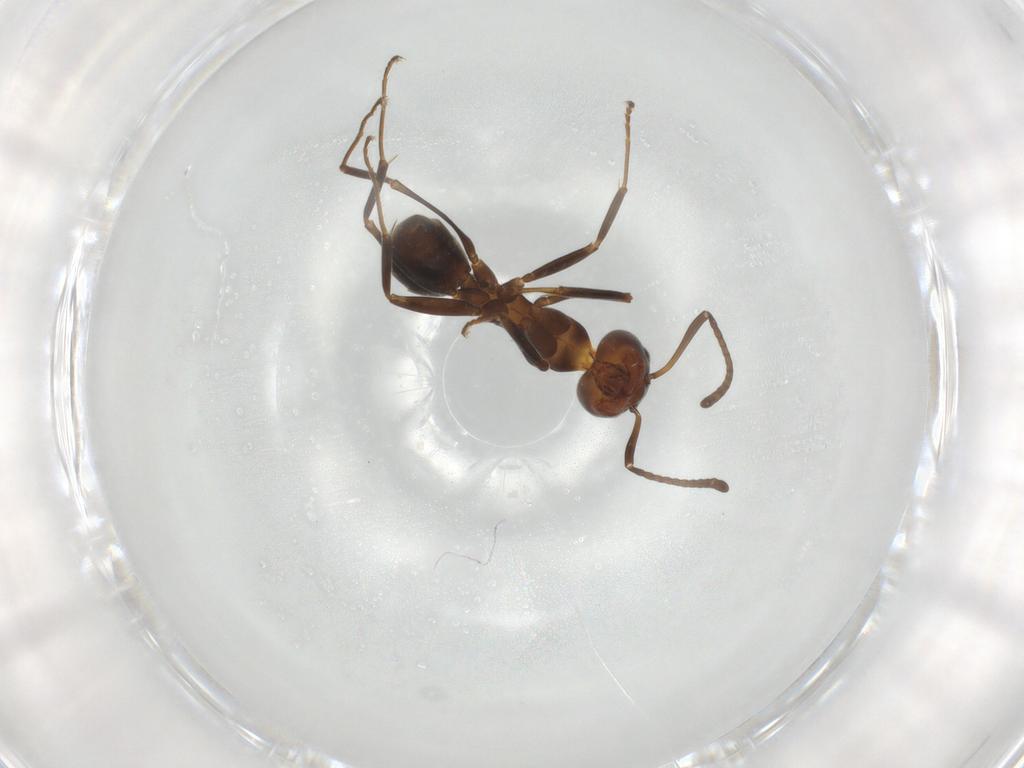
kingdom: Animalia
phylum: Arthropoda
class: Insecta
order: Hymenoptera
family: Formicidae
